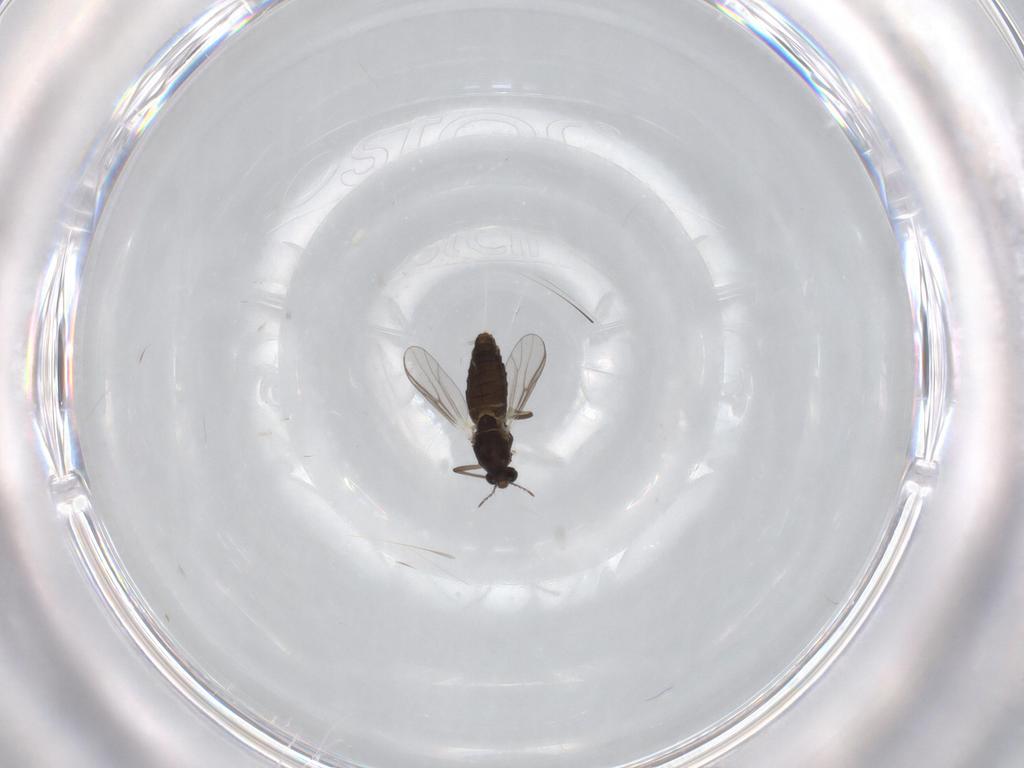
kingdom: Animalia
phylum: Arthropoda
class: Insecta
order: Diptera
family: Chironomidae
